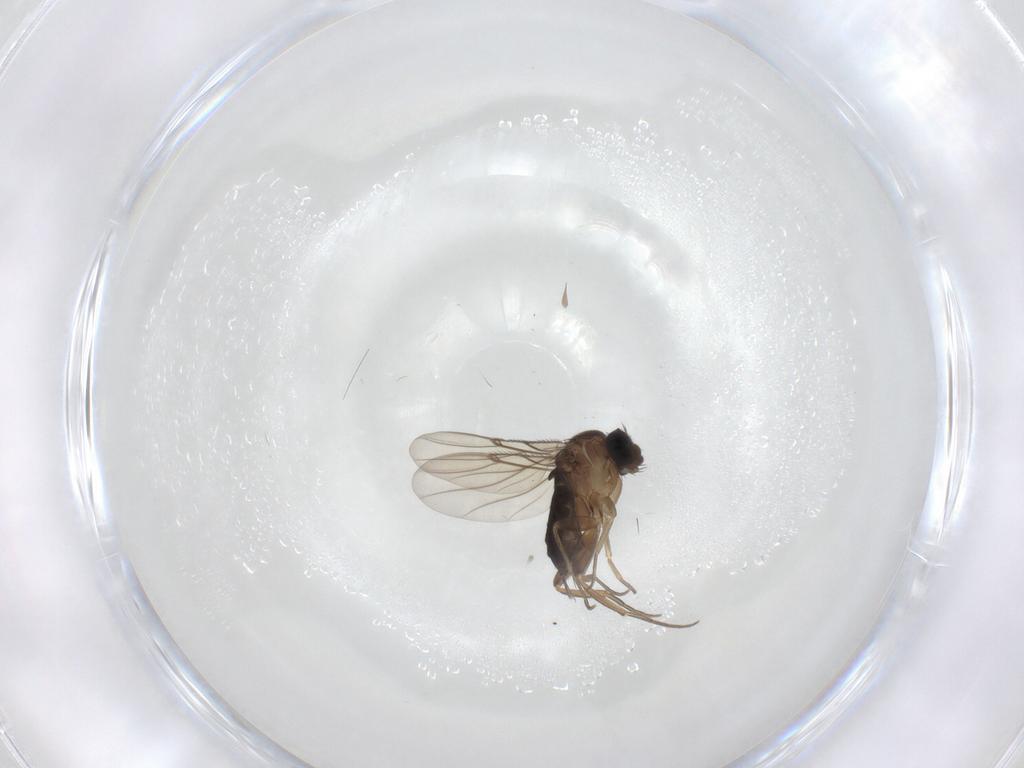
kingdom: Animalia
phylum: Arthropoda
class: Insecta
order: Diptera
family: Phoridae
